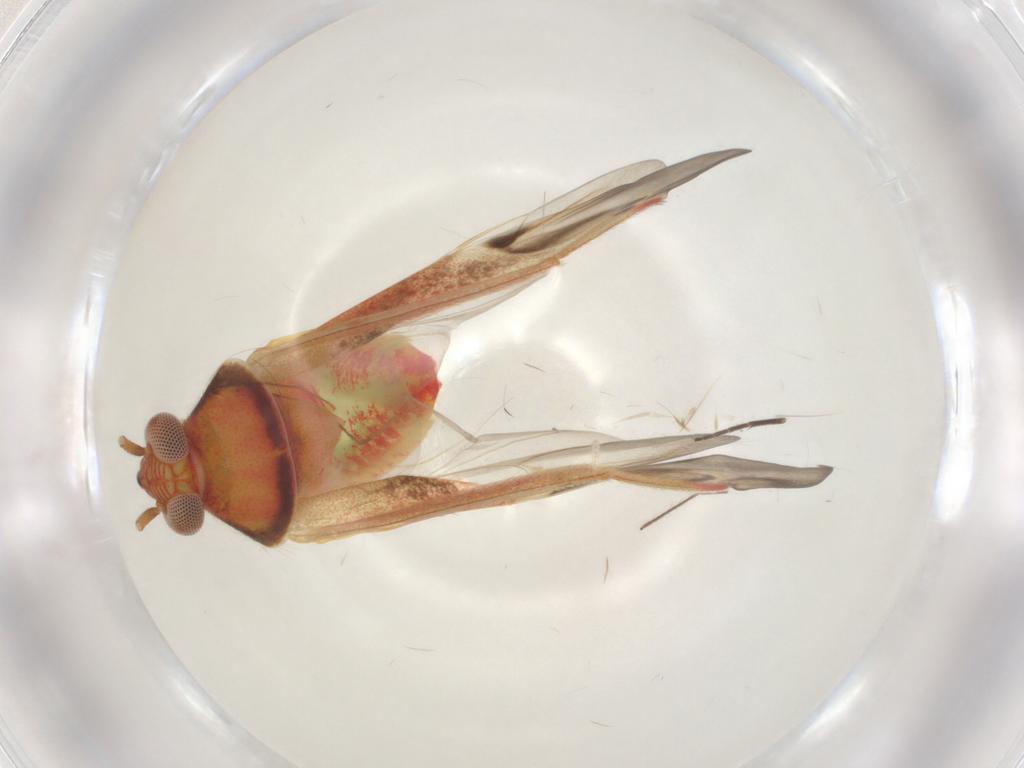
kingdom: Animalia
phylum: Arthropoda
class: Insecta
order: Hemiptera
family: Miridae
